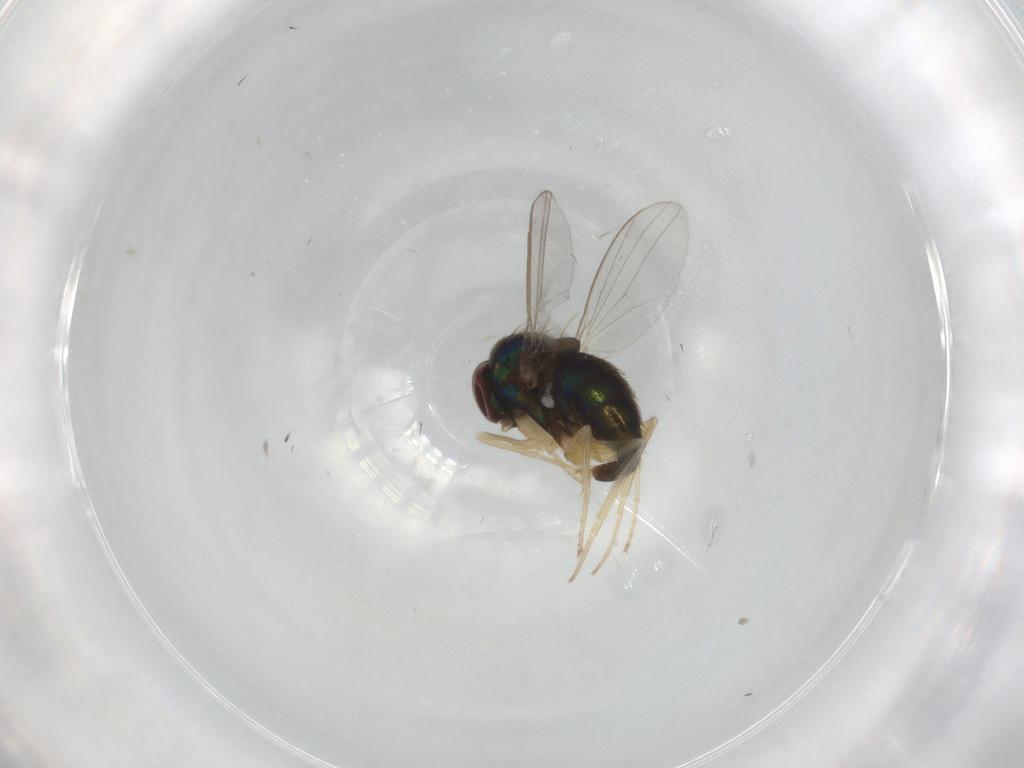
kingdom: Animalia
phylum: Arthropoda
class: Insecta
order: Diptera
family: Dolichopodidae
